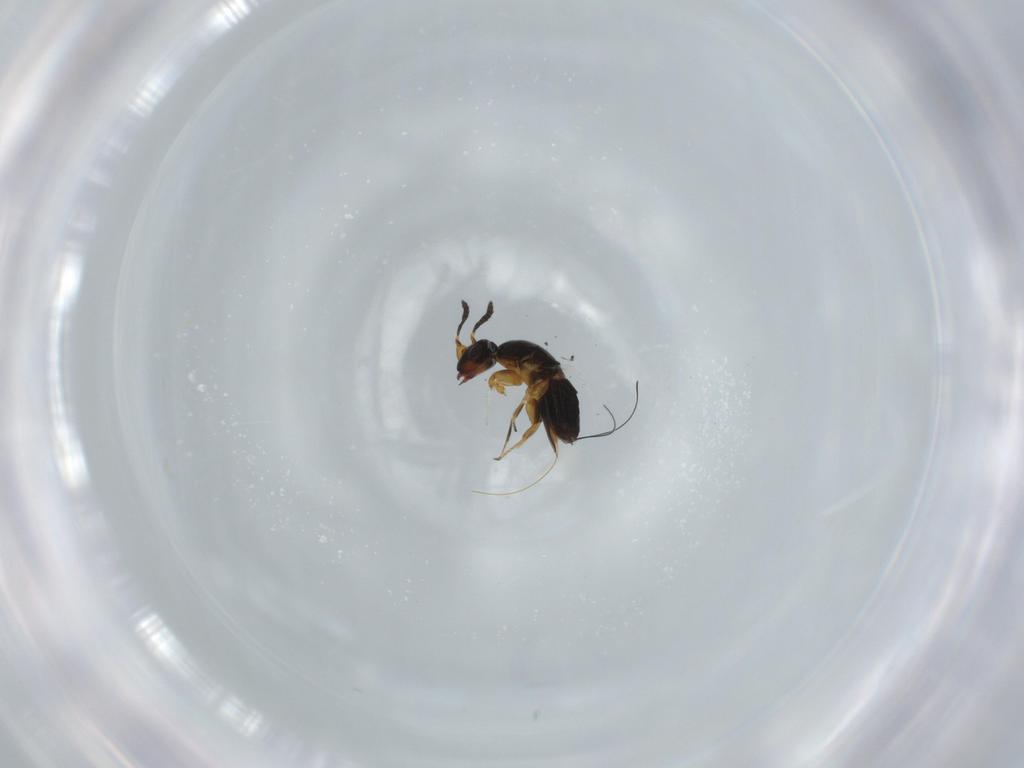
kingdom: Animalia
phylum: Arthropoda
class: Insecta
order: Hymenoptera
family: Agaonidae
